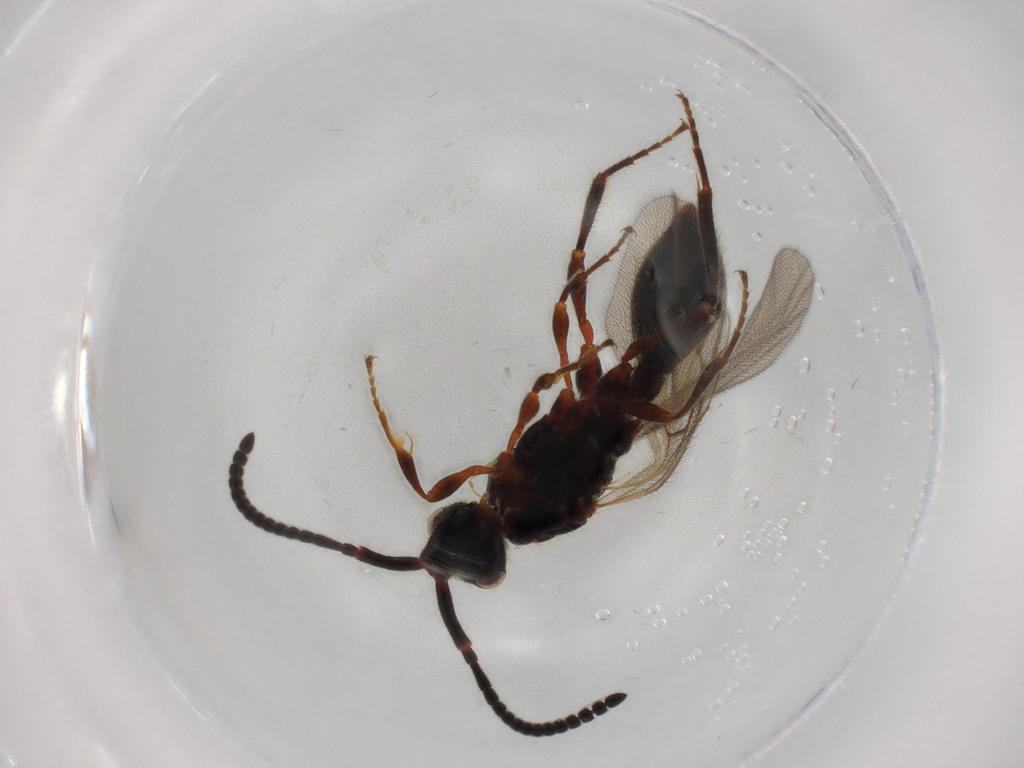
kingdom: Animalia
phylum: Arthropoda
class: Insecta
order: Hymenoptera
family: Diapriidae
